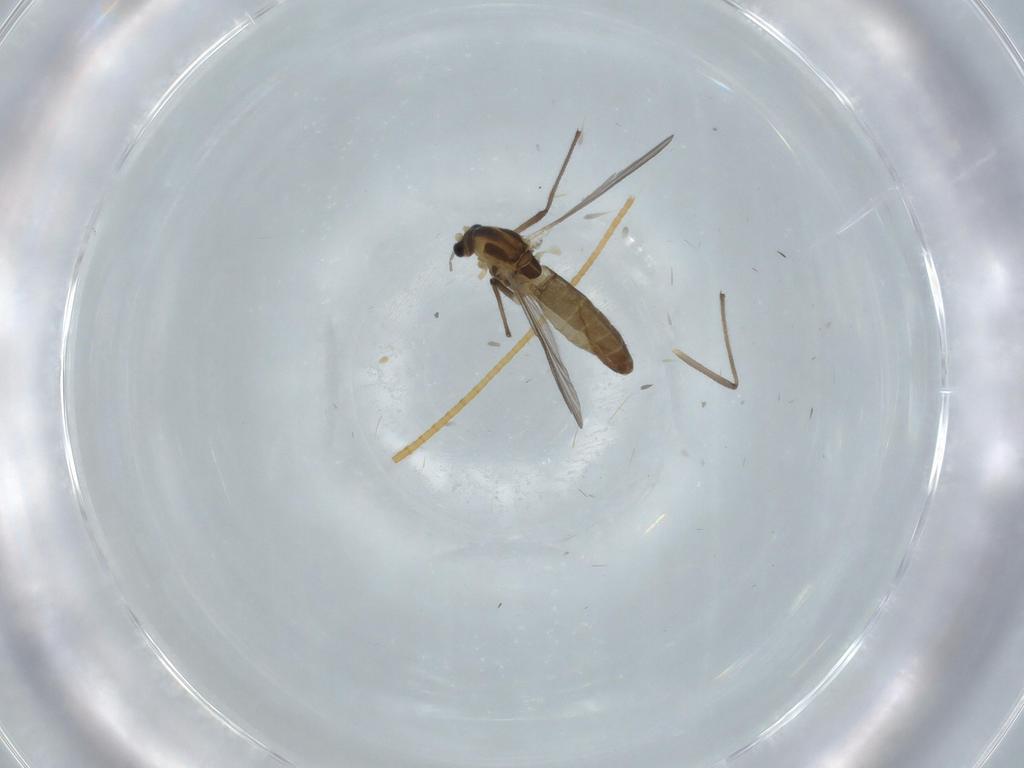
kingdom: Animalia
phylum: Arthropoda
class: Insecta
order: Diptera
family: Chironomidae
